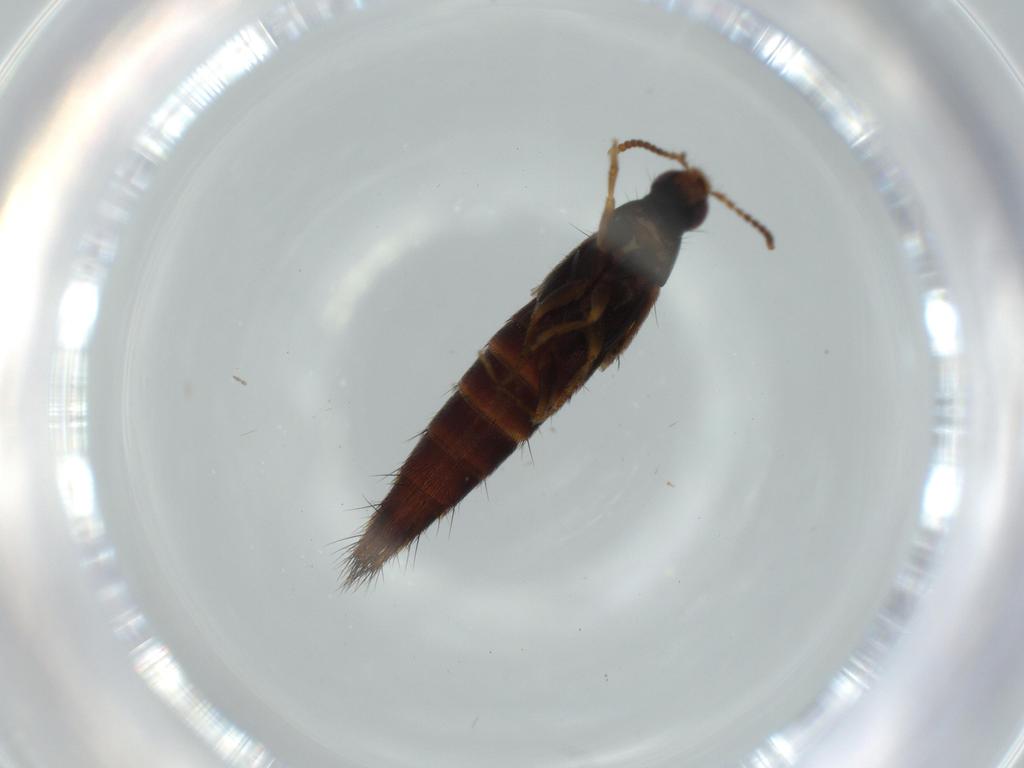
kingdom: Animalia
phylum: Arthropoda
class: Insecta
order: Coleoptera
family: Staphylinidae
